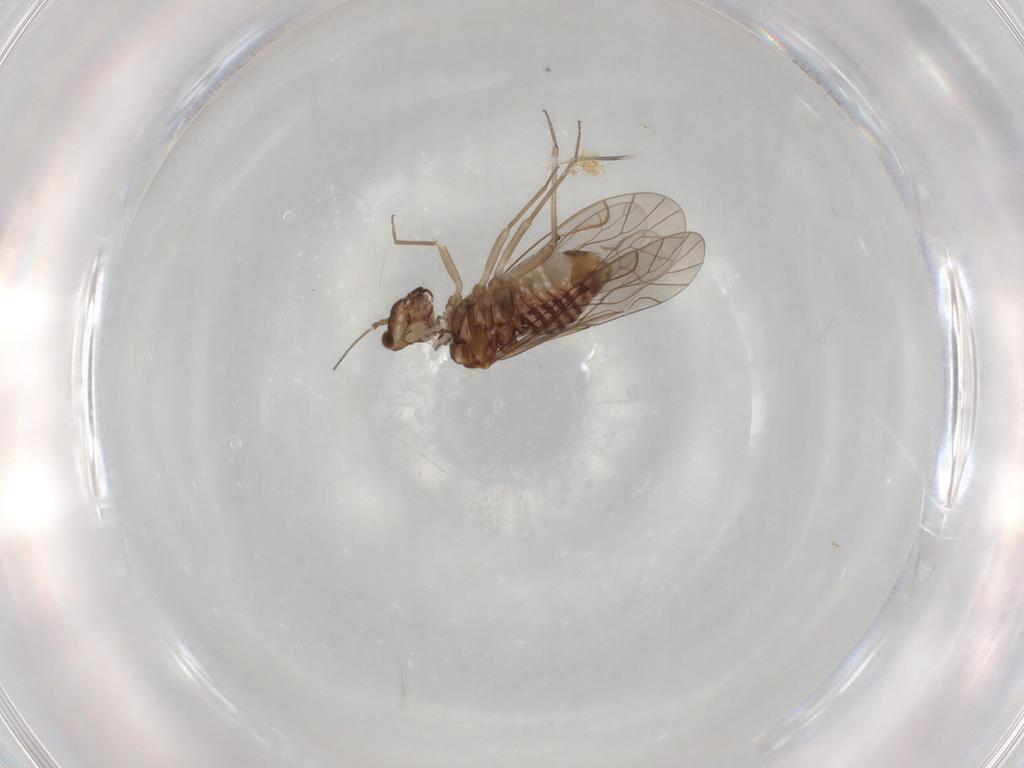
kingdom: Animalia
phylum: Arthropoda
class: Insecta
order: Psocodea
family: Lachesillidae
